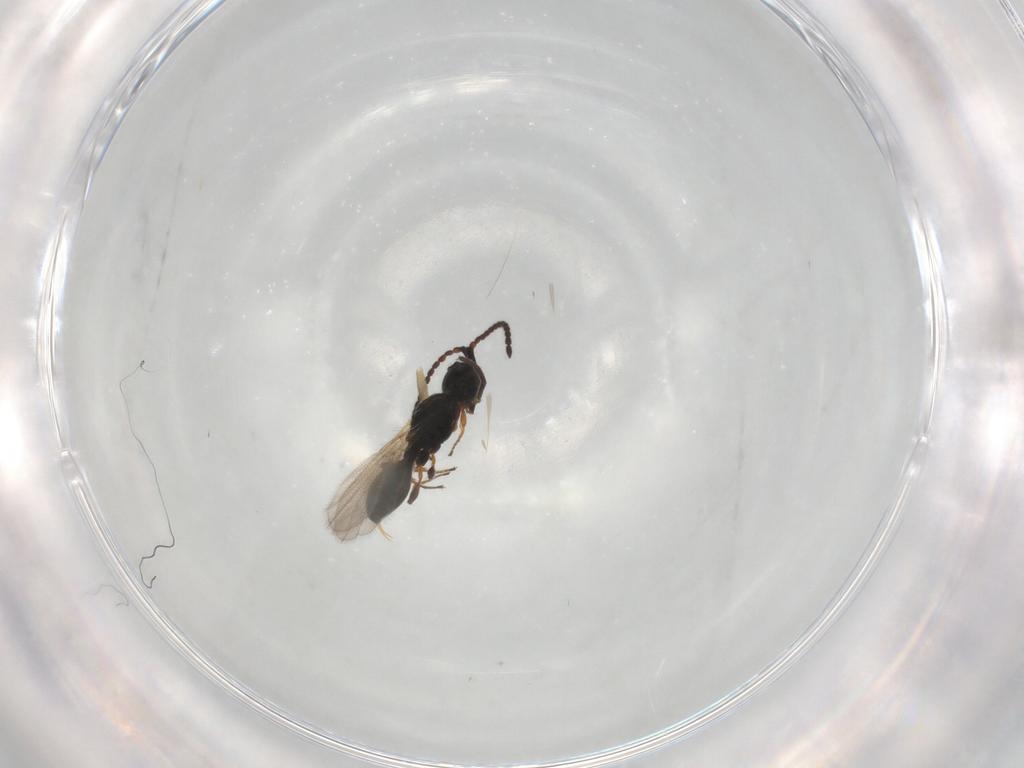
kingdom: Animalia
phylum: Arthropoda
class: Insecta
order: Hymenoptera
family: Diapriidae
